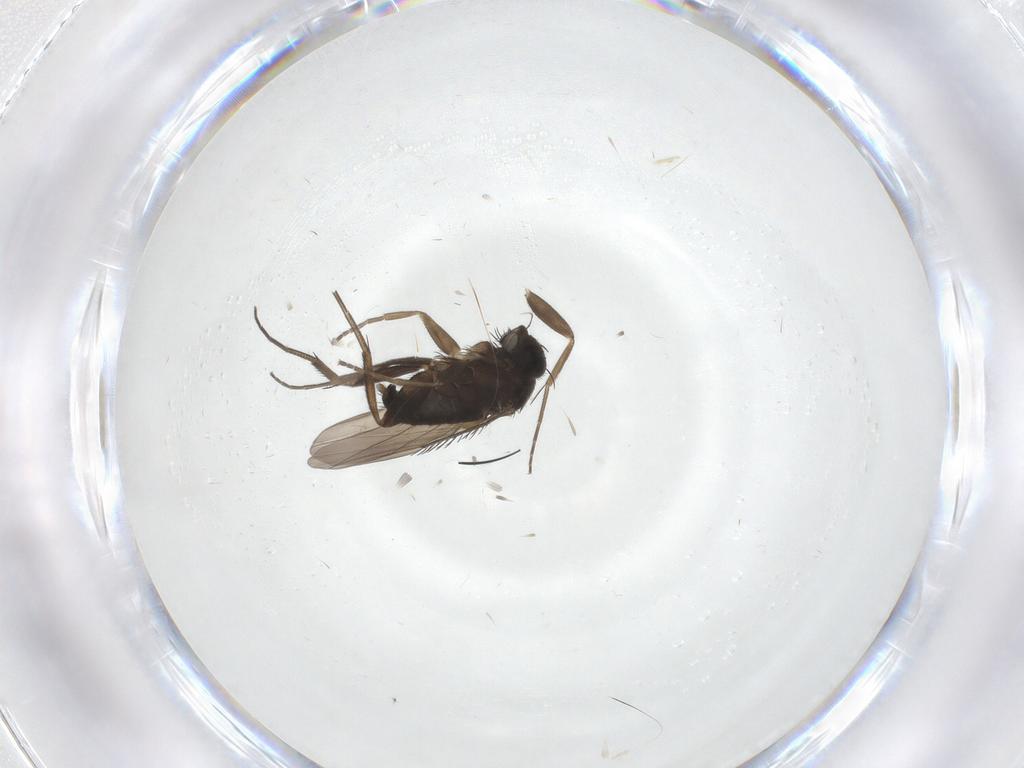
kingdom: Animalia
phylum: Arthropoda
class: Insecta
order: Diptera
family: Phoridae
